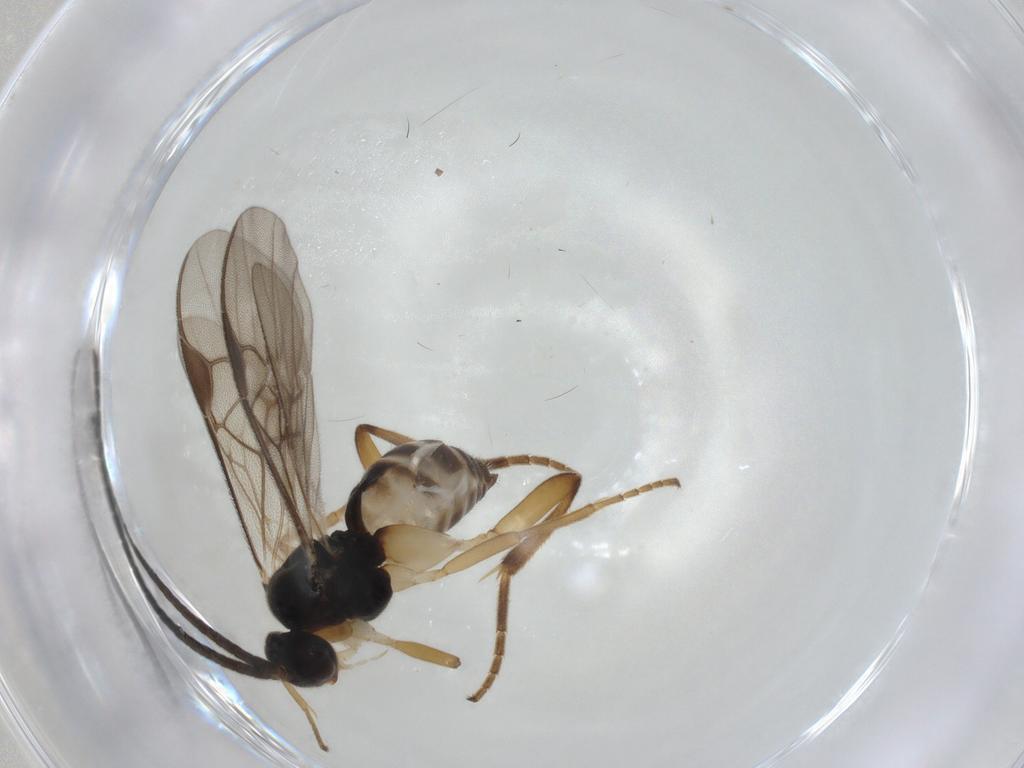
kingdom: Animalia
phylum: Arthropoda
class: Insecta
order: Hymenoptera
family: Braconidae
